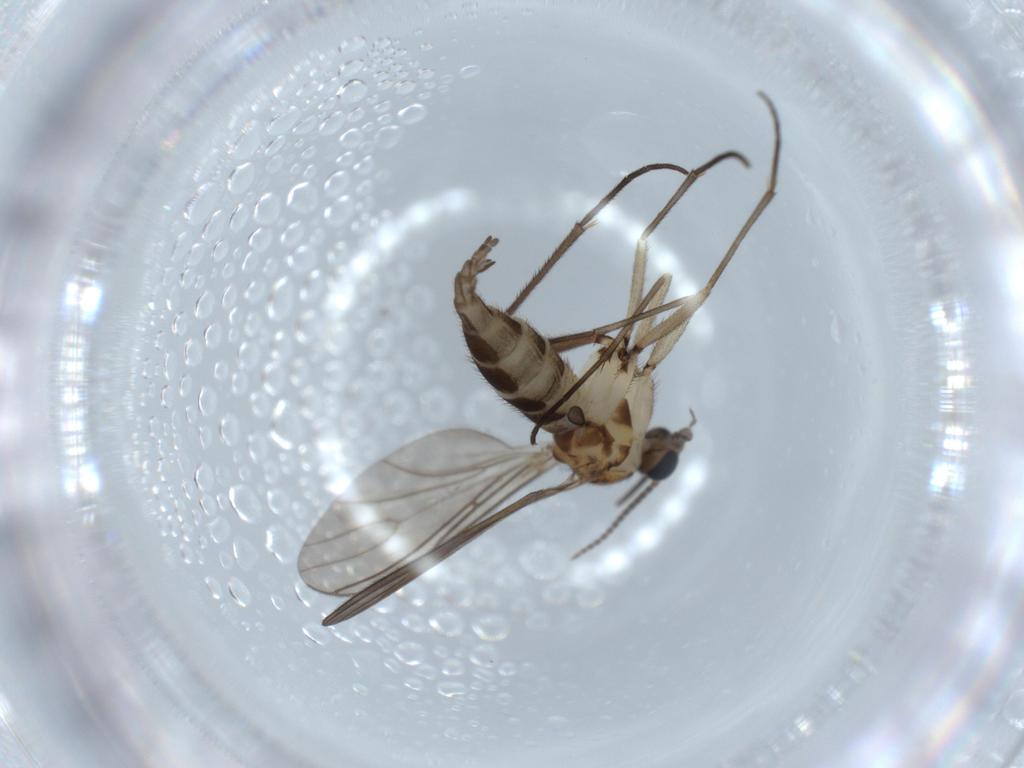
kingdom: Animalia
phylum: Arthropoda
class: Insecta
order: Diptera
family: Sciaridae
